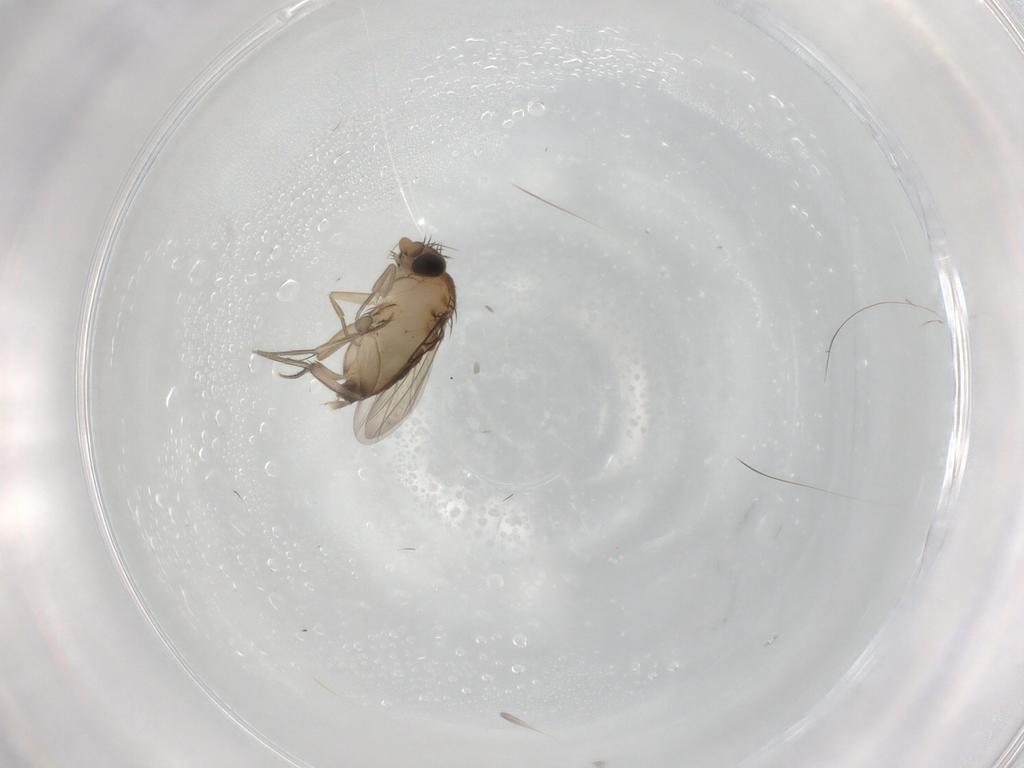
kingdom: Animalia
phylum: Arthropoda
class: Insecta
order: Diptera
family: Phoridae
